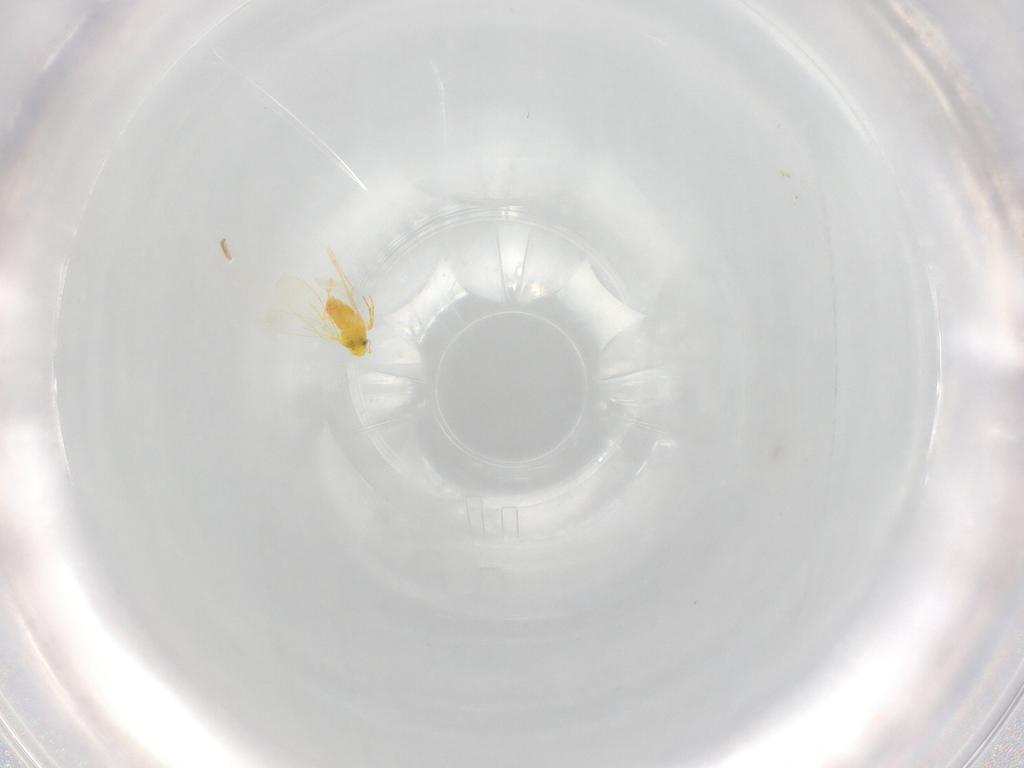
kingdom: Animalia
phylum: Arthropoda
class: Insecta
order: Hemiptera
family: Aleyrodidae
